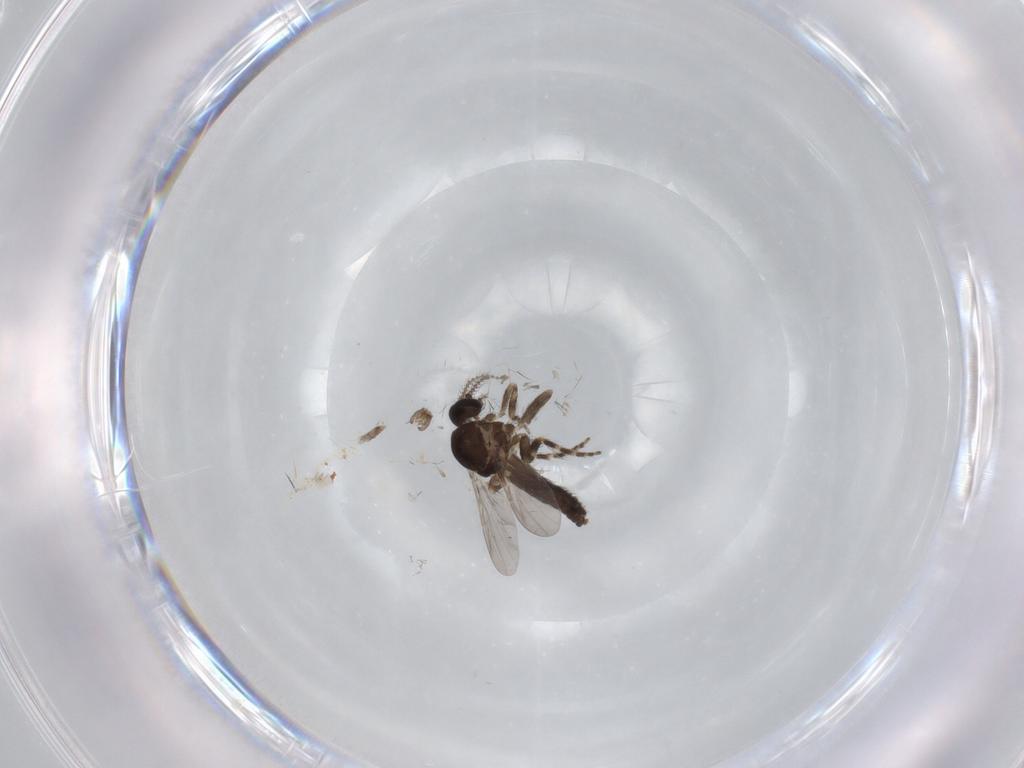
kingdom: Animalia
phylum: Arthropoda
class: Insecta
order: Diptera
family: Ceratopogonidae
